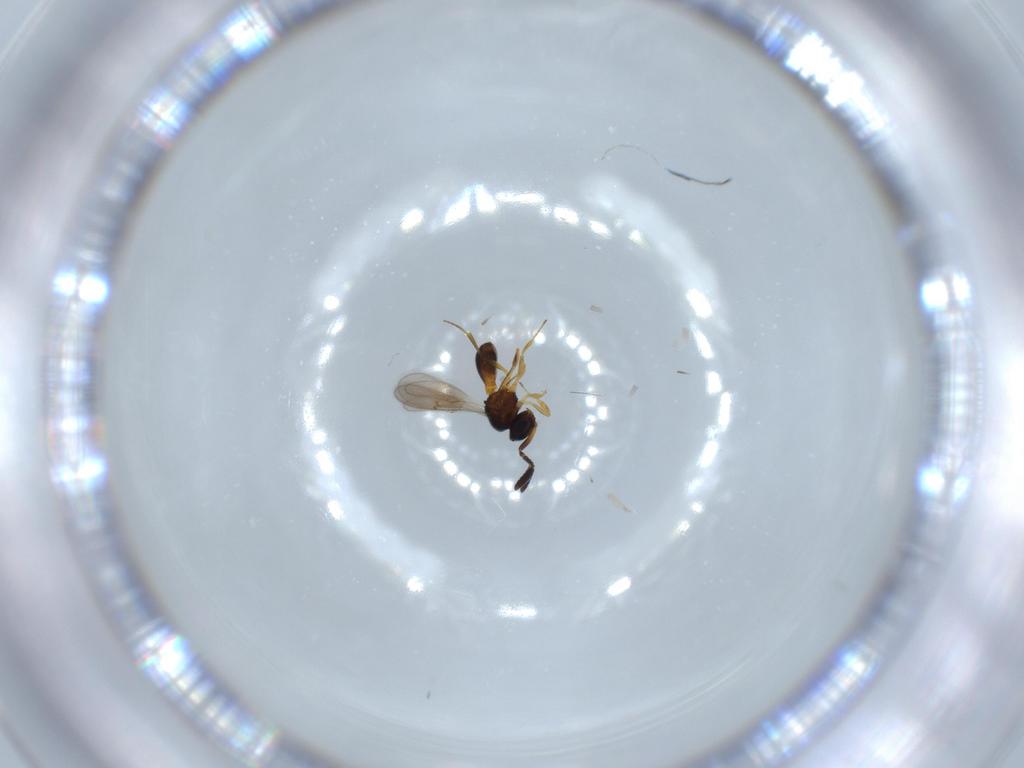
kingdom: Animalia
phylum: Arthropoda
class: Insecta
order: Hymenoptera
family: Scelionidae
